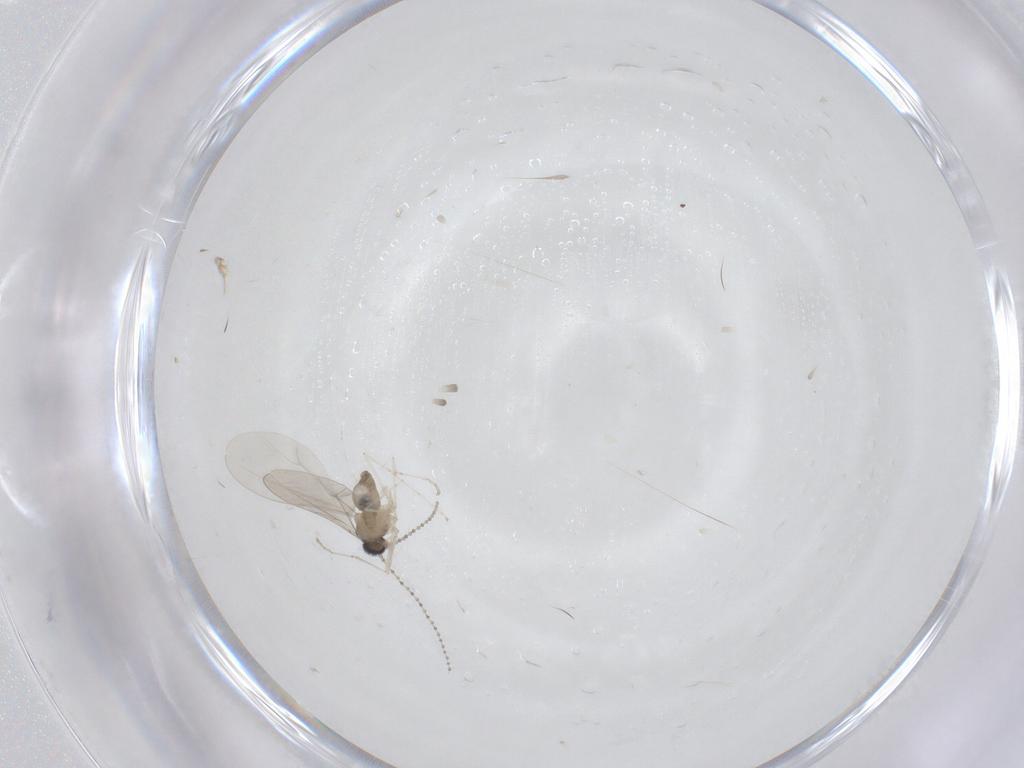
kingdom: Animalia
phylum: Arthropoda
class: Insecta
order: Diptera
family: Cecidomyiidae
